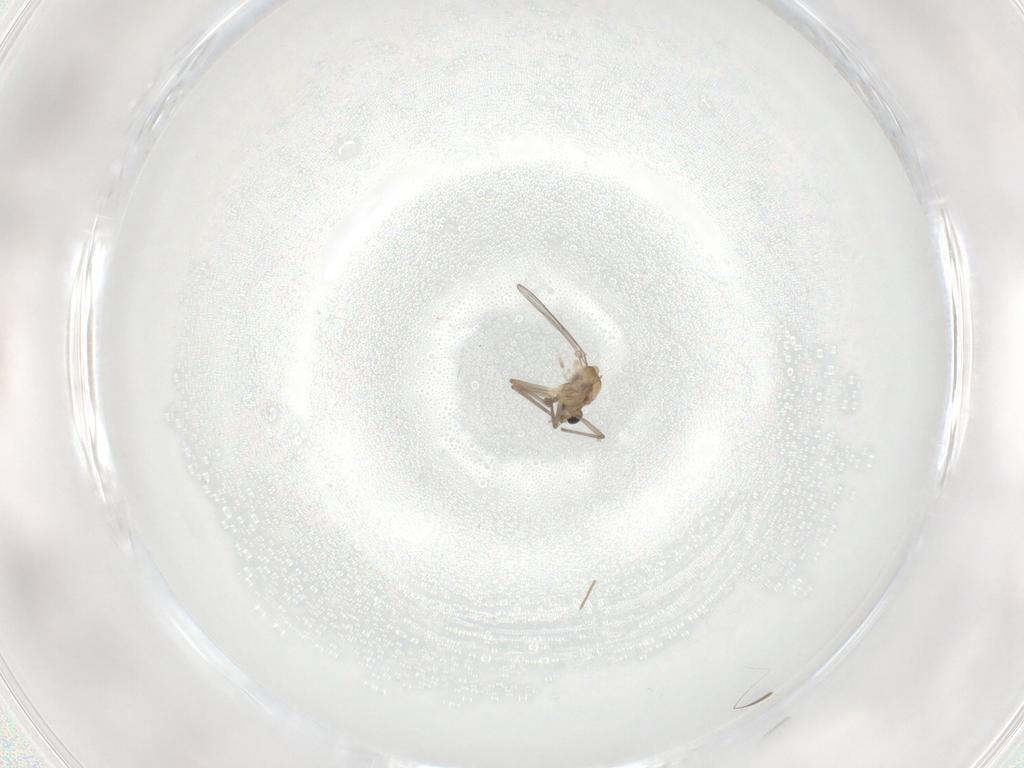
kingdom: Animalia
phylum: Arthropoda
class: Insecta
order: Diptera
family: Chironomidae
